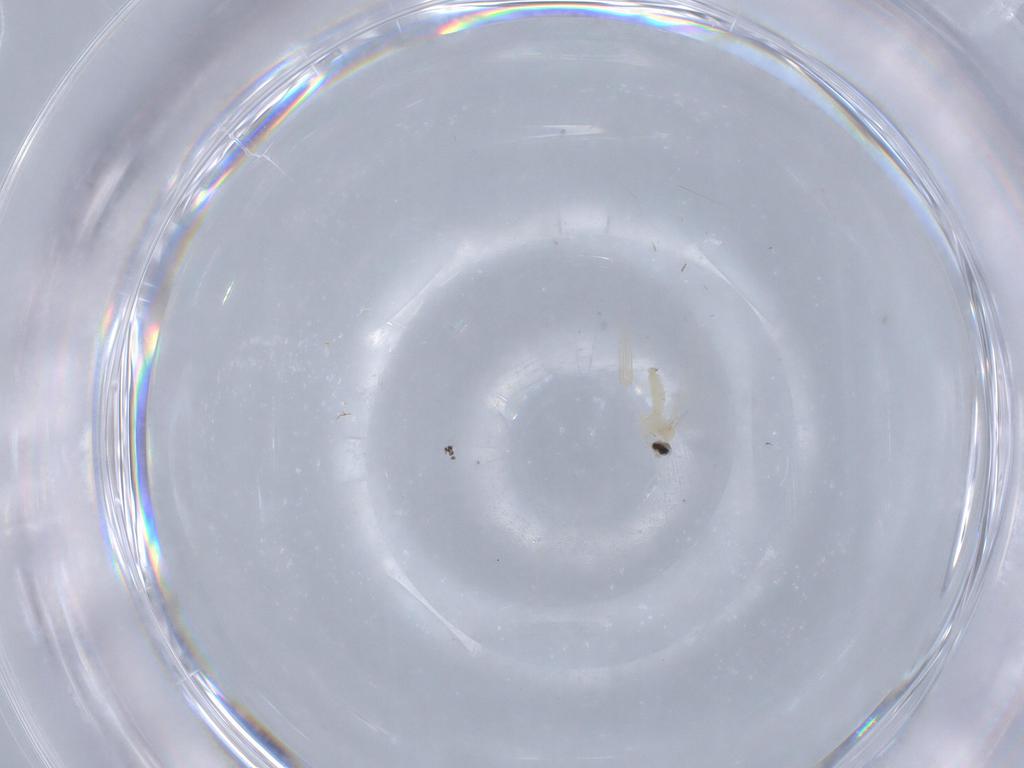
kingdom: Animalia
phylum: Arthropoda
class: Insecta
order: Diptera
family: Cecidomyiidae
